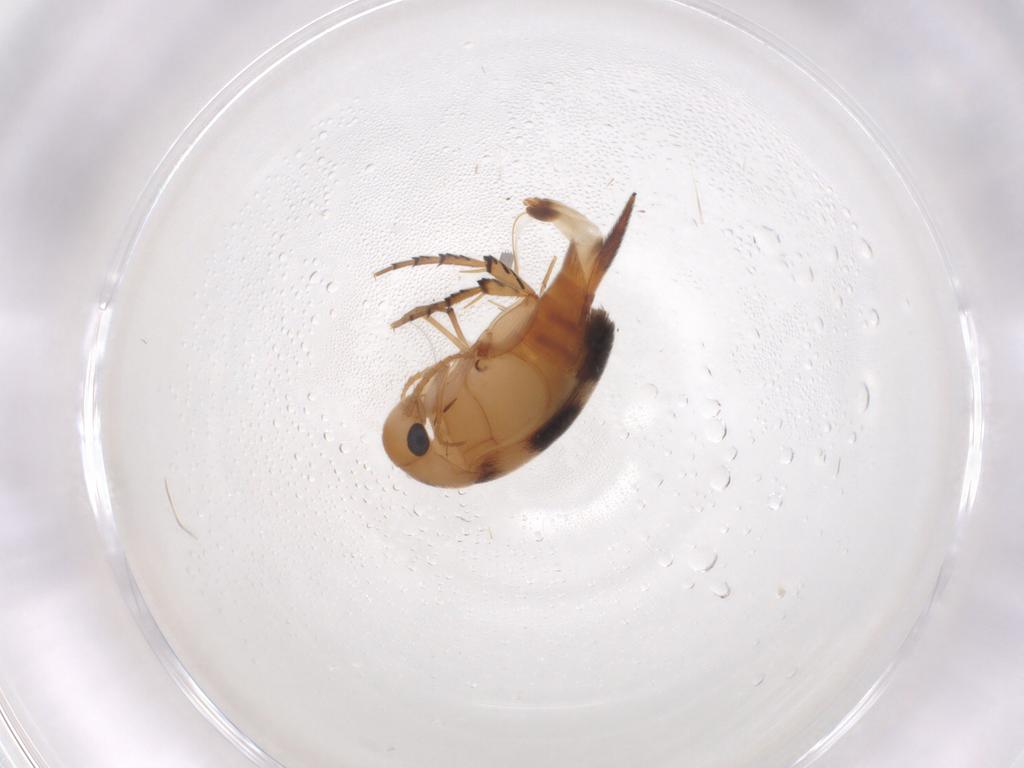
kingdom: Animalia
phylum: Arthropoda
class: Insecta
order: Coleoptera
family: Mordellidae
